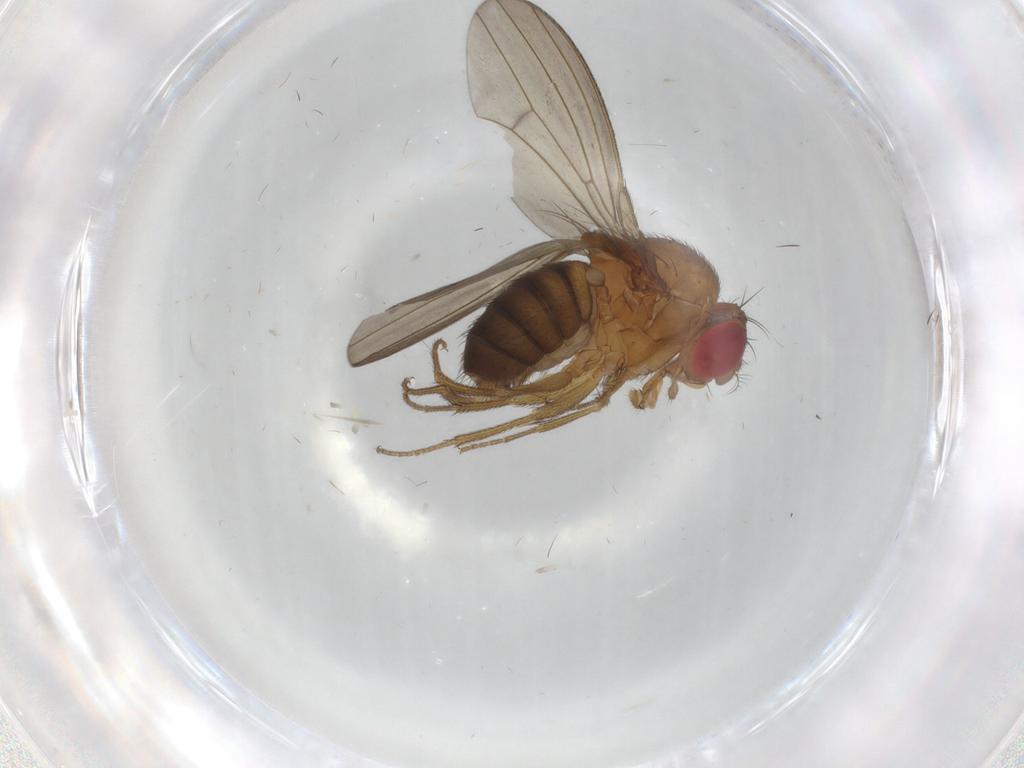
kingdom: Animalia
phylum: Arthropoda
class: Insecta
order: Diptera
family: Drosophilidae
